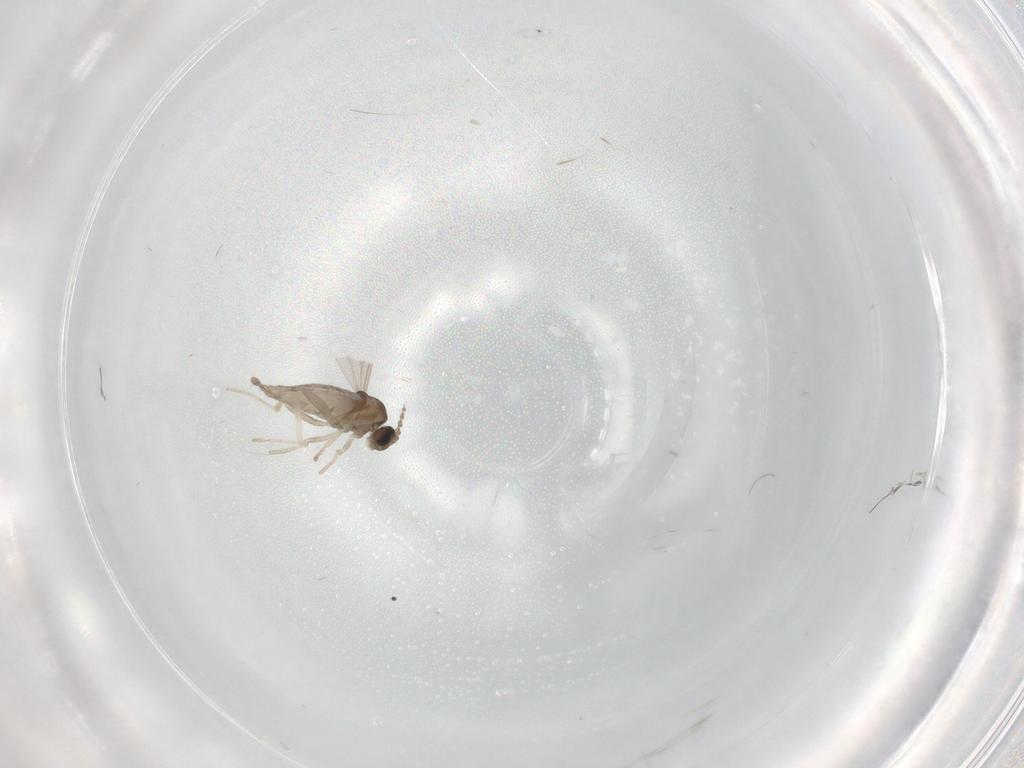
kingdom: Animalia
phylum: Arthropoda
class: Insecta
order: Diptera
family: Cecidomyiidae
